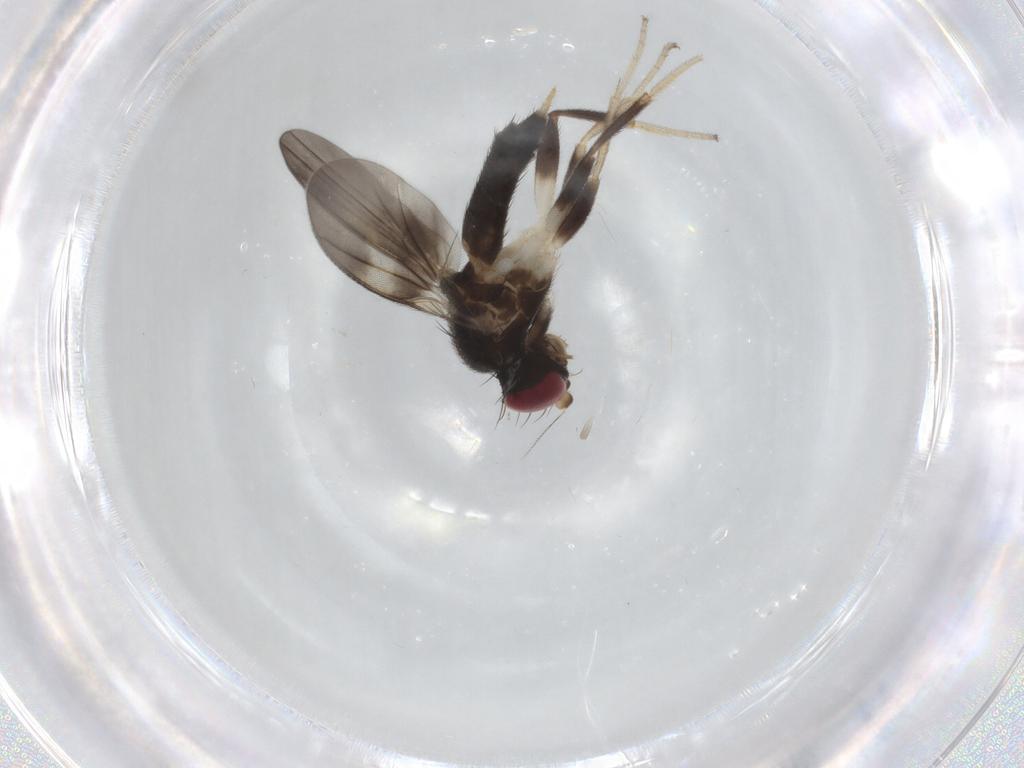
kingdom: Animalia
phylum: Arthropoda
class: Insecta
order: Diptera
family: Clusiidae
